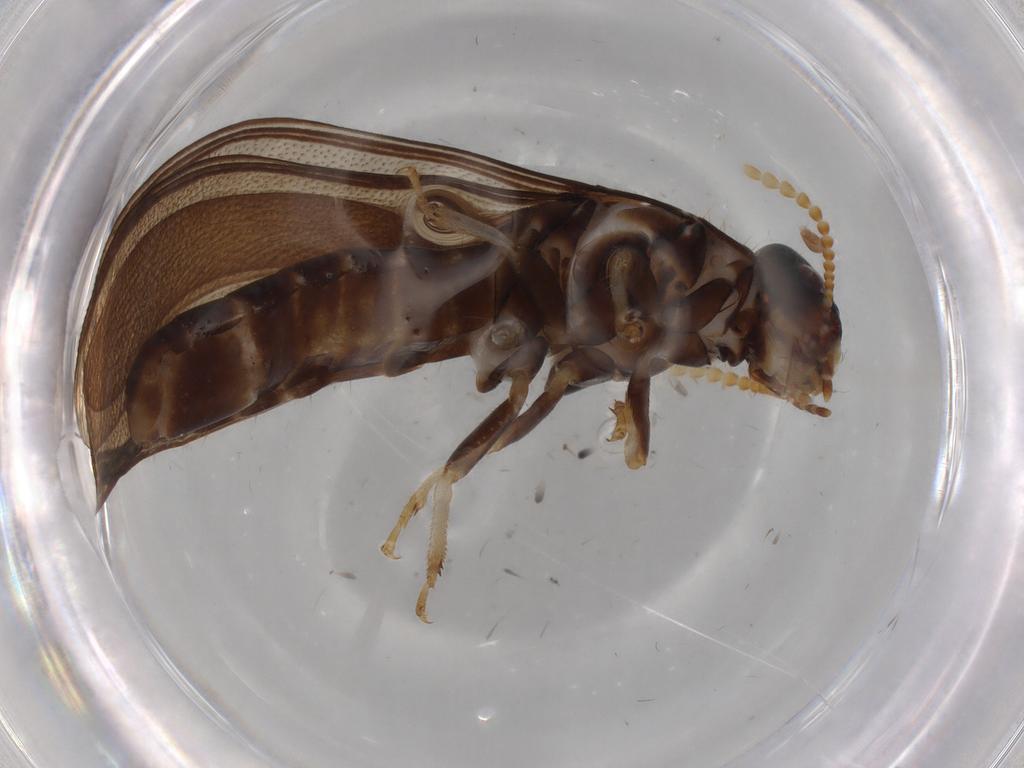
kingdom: Animalia
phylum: Arthropoda
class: Insecta
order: Blattodea
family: Kalotermitidae
